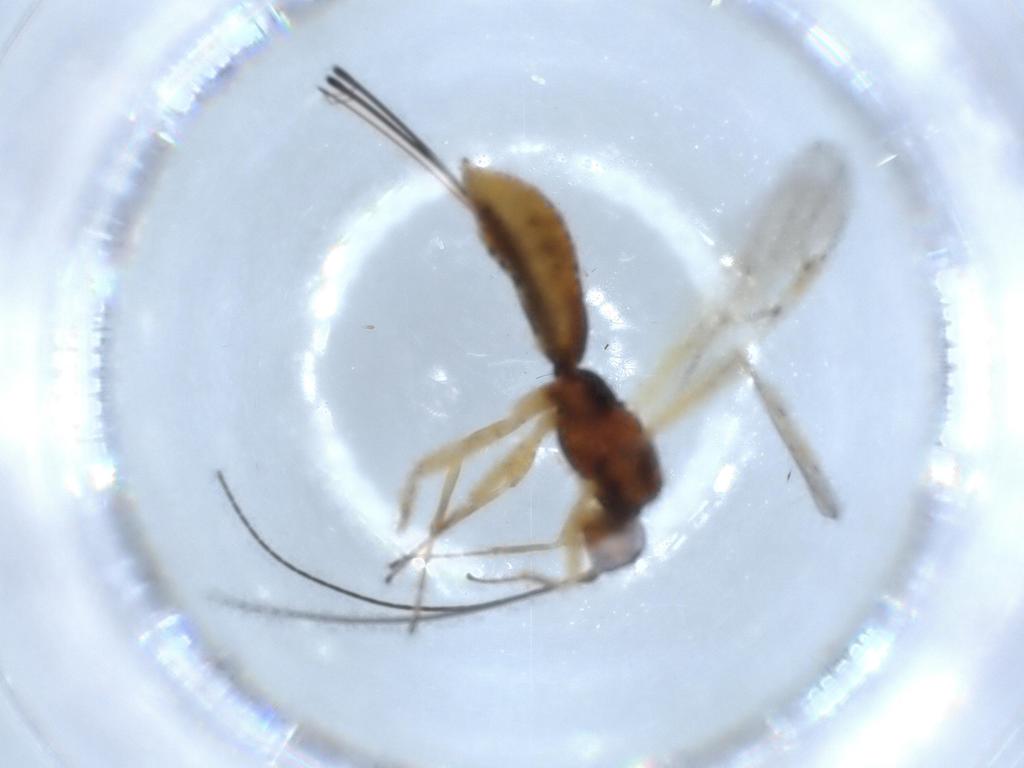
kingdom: Animalia
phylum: Arthropoda
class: Insecta
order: Hymenoptera
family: Braconidae
